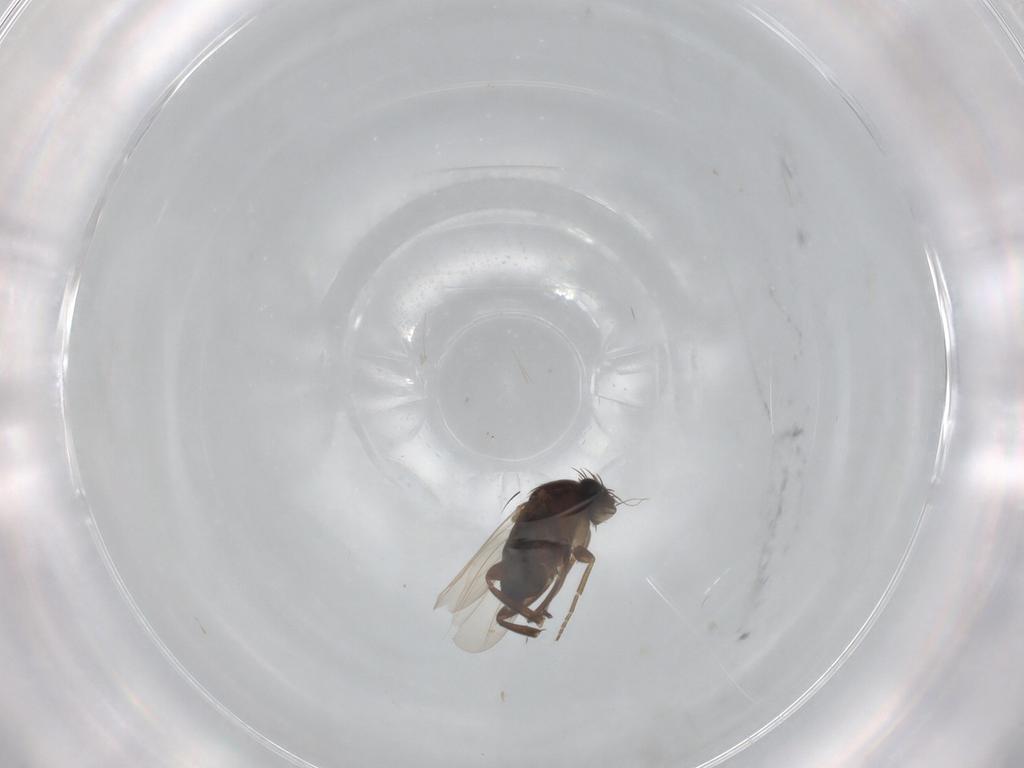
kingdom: Animalia
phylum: Arthropoda
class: Insecta
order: Diptera
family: Phoridae
